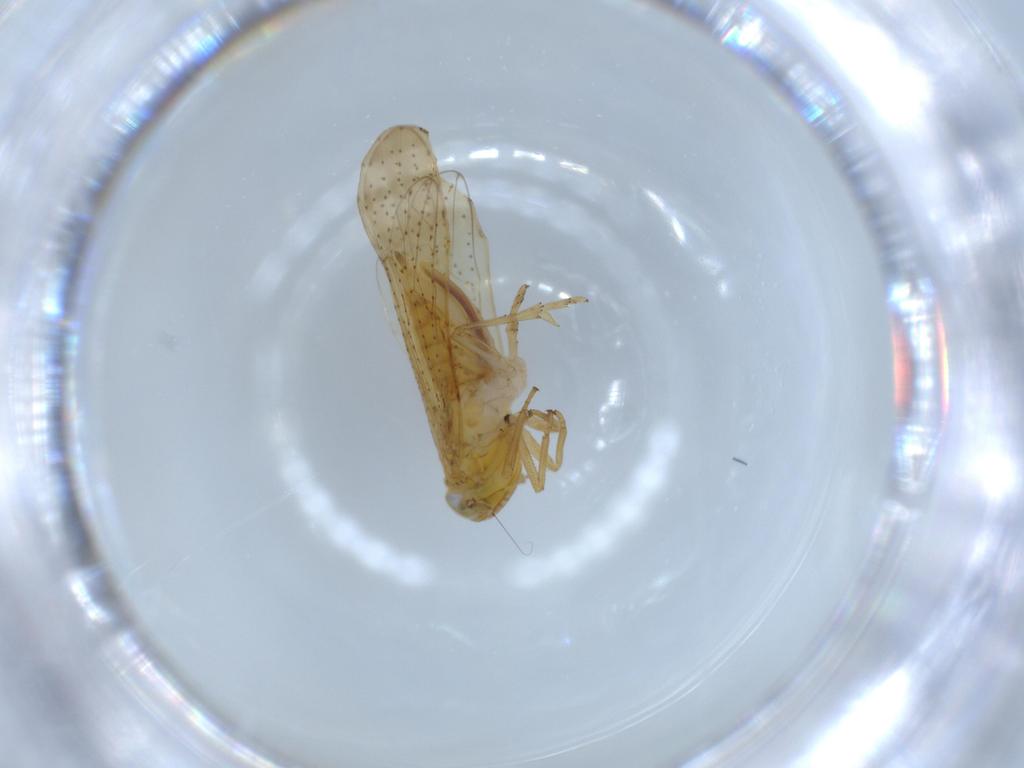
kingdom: Animalia
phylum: Arthropoda
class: Insecta
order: Hemiptera
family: Delphacidae
